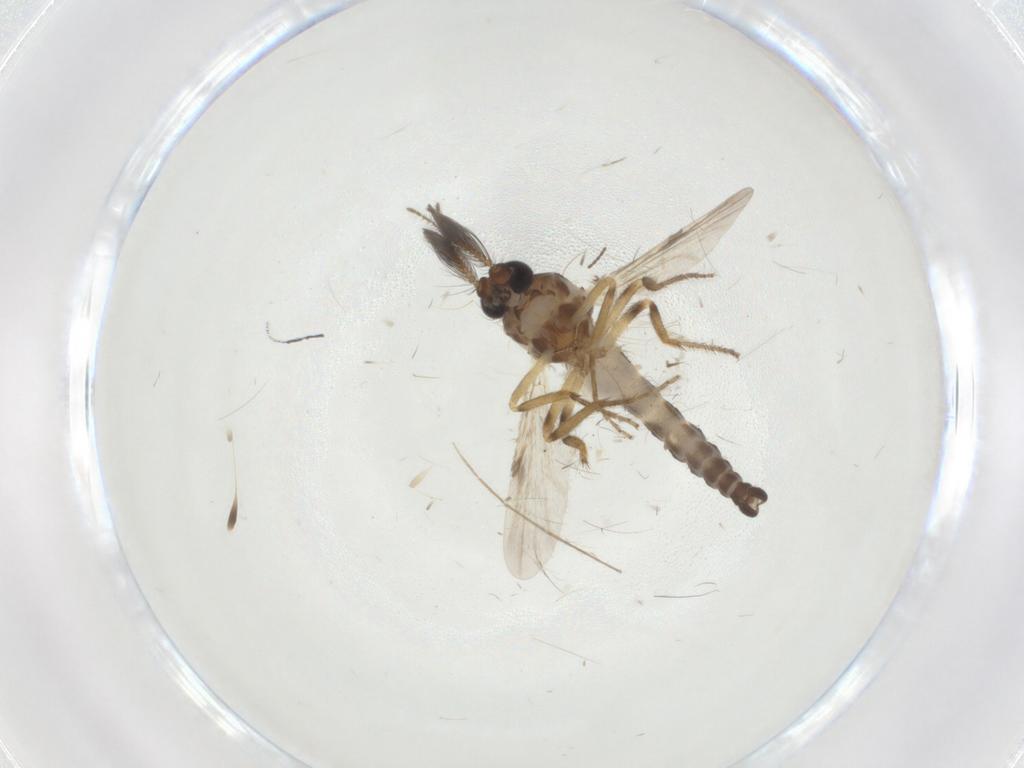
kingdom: Animalia
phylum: Arthropoda
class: Insecta
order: Diptera
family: Ceratopogonidae
